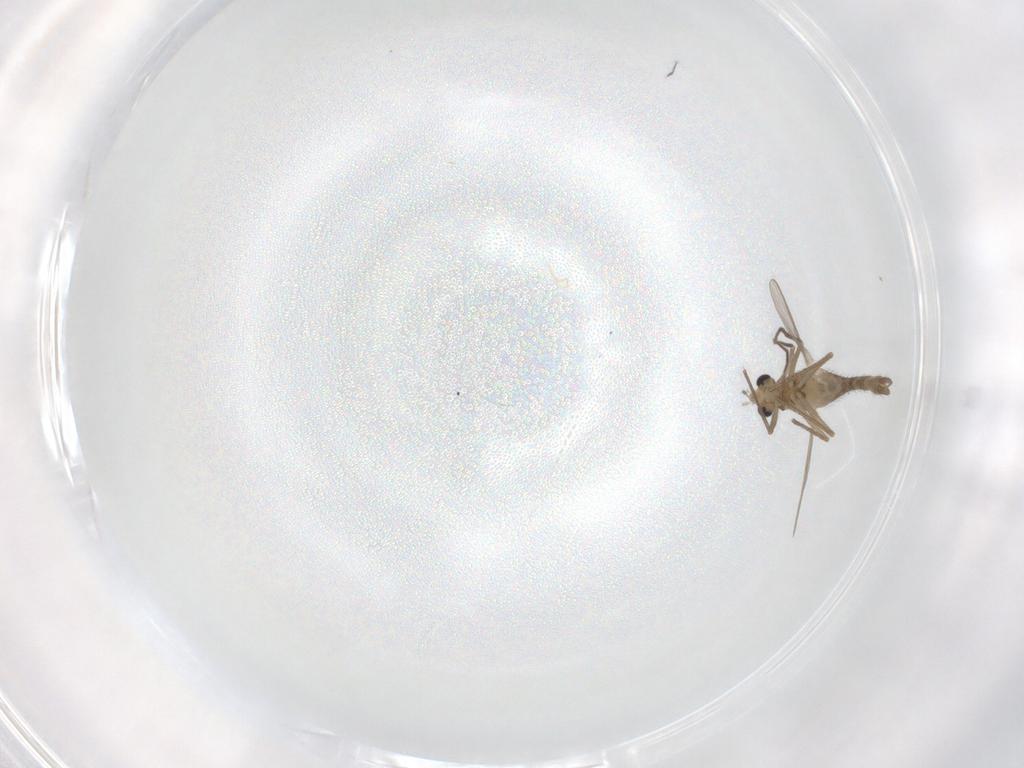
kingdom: Animalia
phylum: Arthropoda
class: Insecta
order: Diptera
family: Chironomidae
